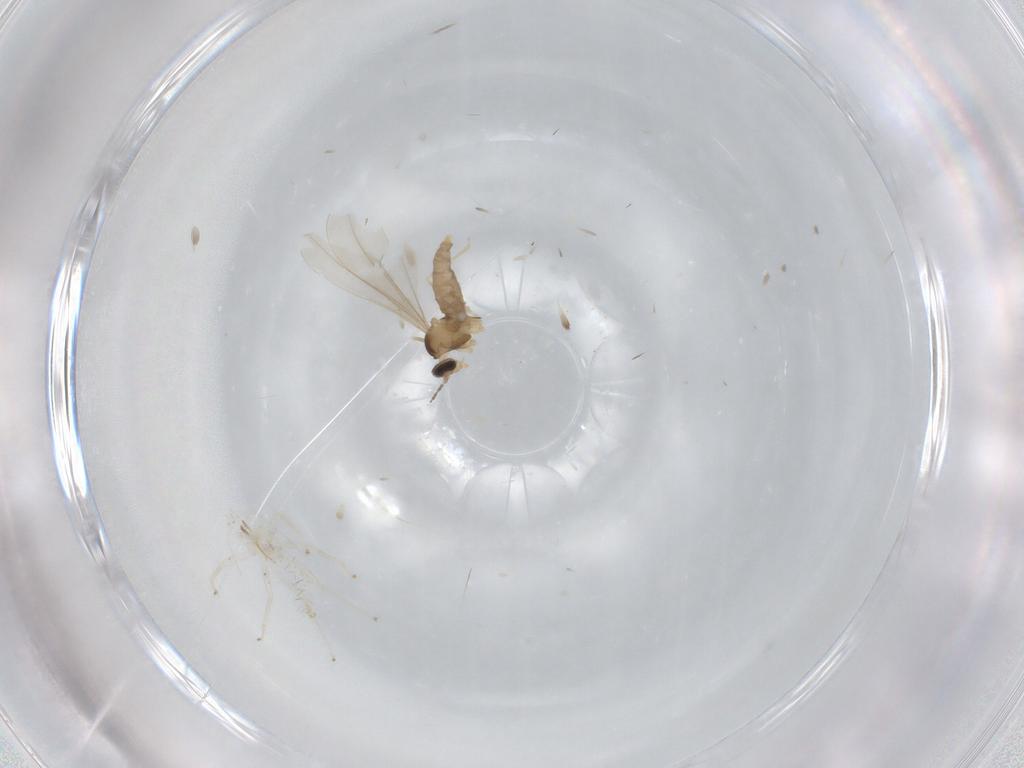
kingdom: Animalia
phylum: Arthropoda
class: Insecta
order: Diptera
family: Cecidomyiidae
